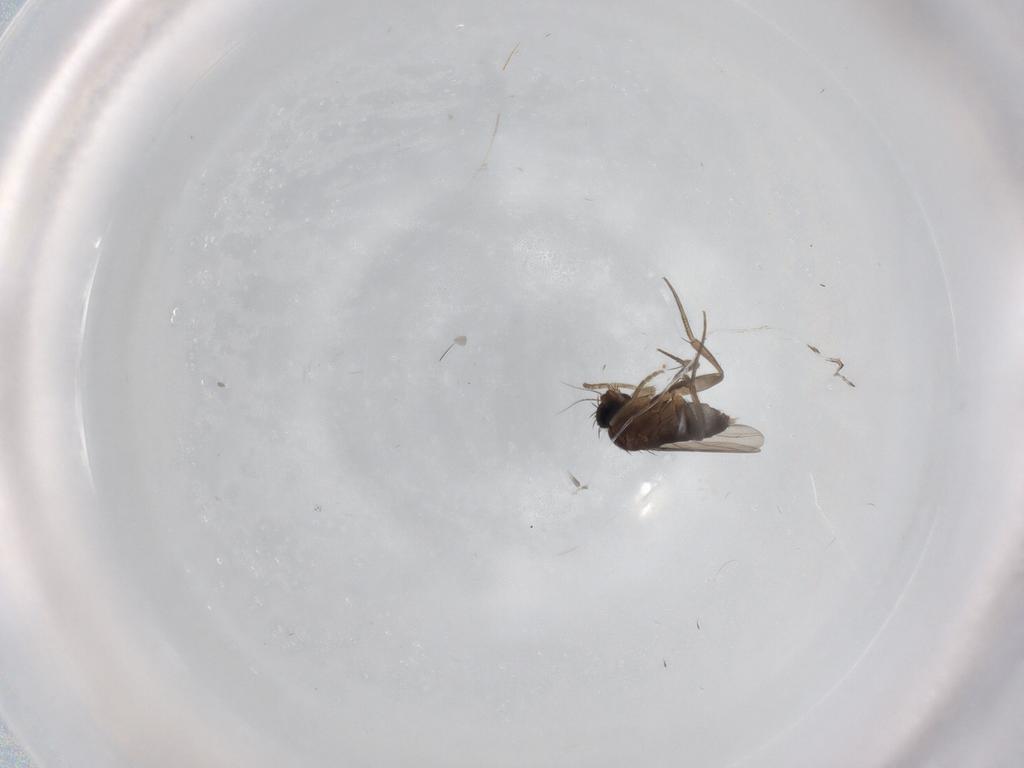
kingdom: Animalia
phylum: Arthropoda
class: Insecta
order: Diptera
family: Phoridae
